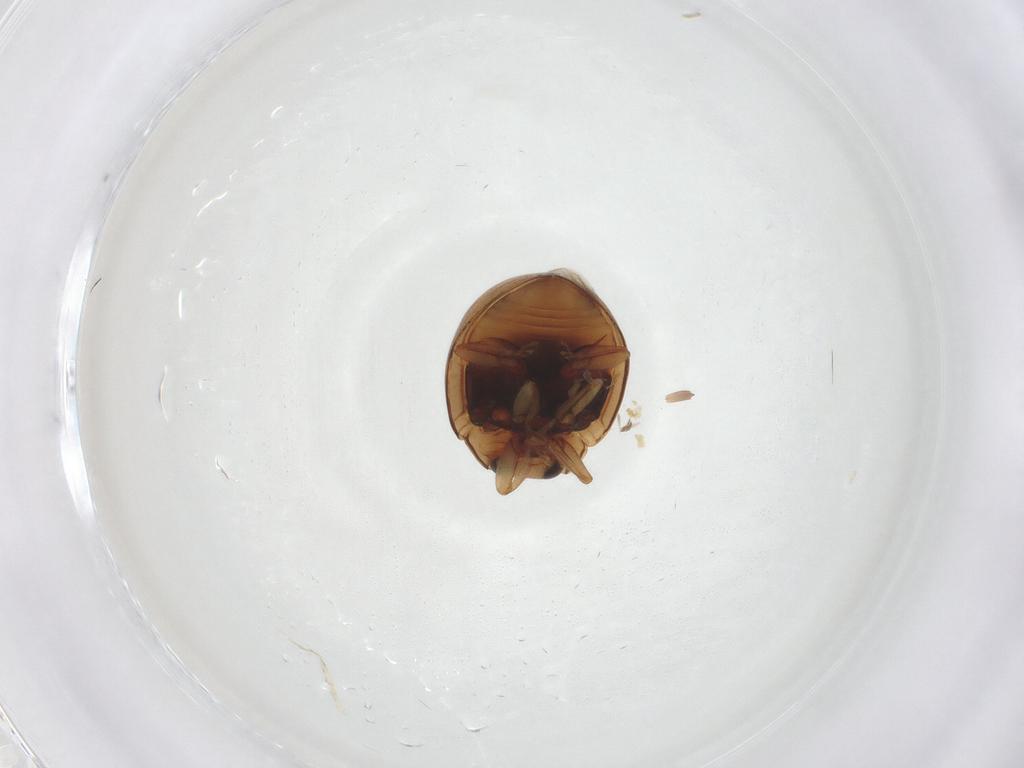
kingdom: Animalia
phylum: Arthropoda
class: Insecta
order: Coleoptera
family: Coccinellidae
